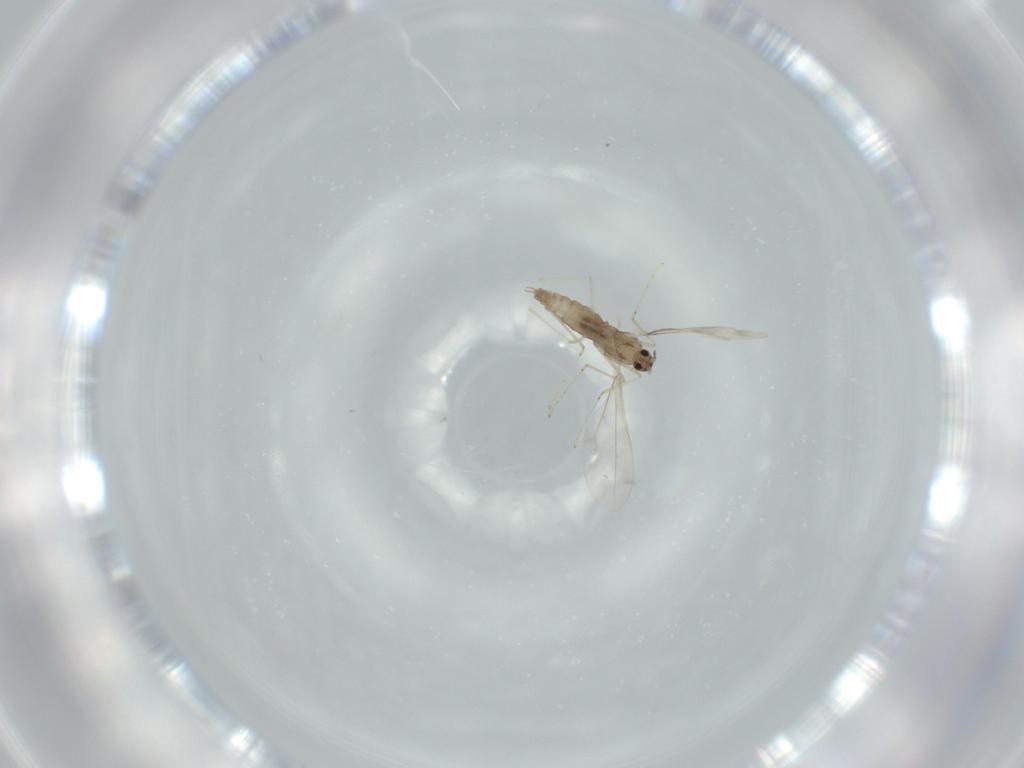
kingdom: Animalia
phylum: Arthropoda
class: Insecta
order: Diptera
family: Cecidomyiidae
